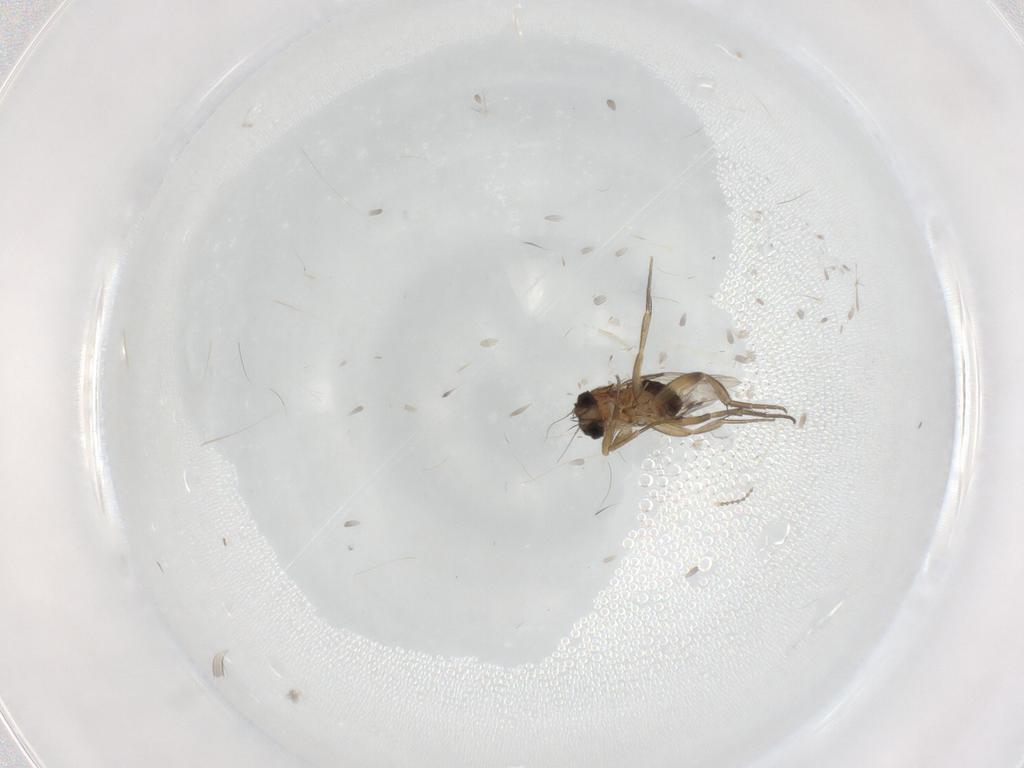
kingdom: Animalia
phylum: Arthropoda
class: Insecta
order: Diptera
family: Phoridae
